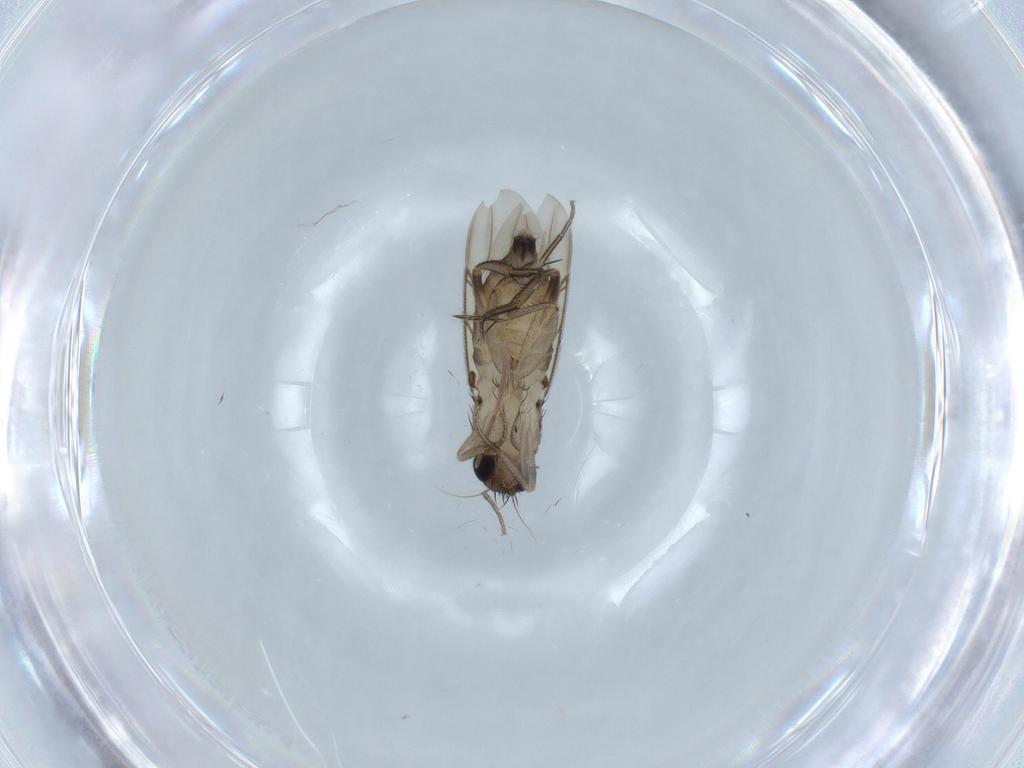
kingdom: Animalia
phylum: Arthropoda
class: Insecta
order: Diptera
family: Phoridae
